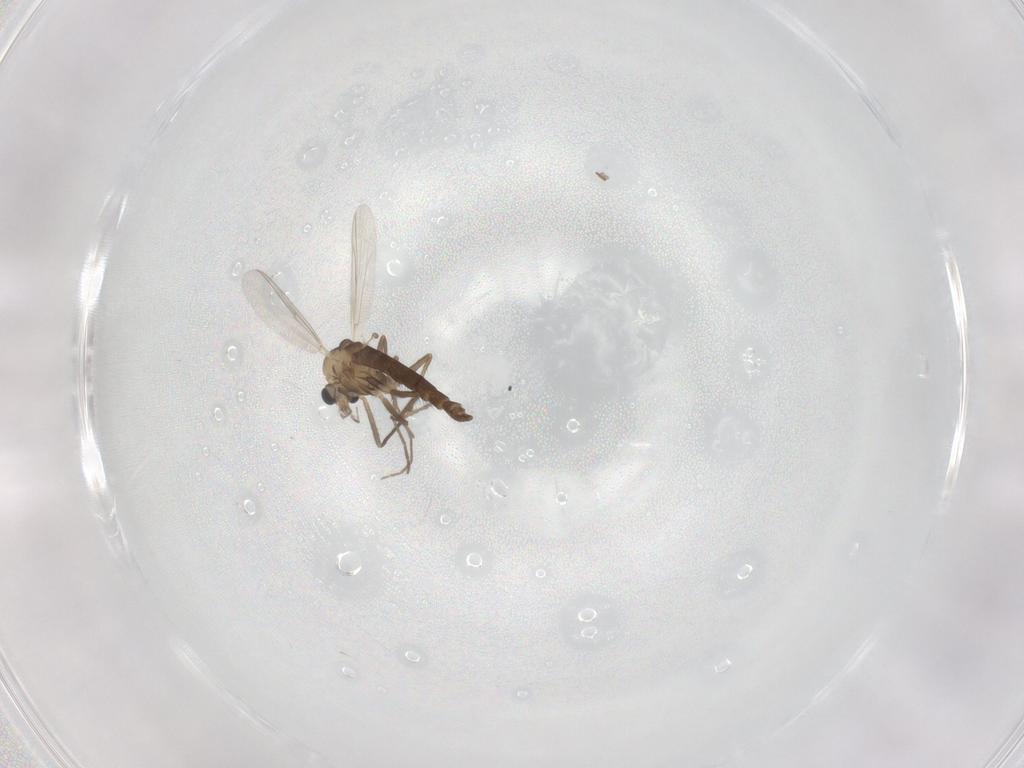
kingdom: Animalia
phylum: Arthropoda
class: Insecta
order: Diptera
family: Chironomidae
